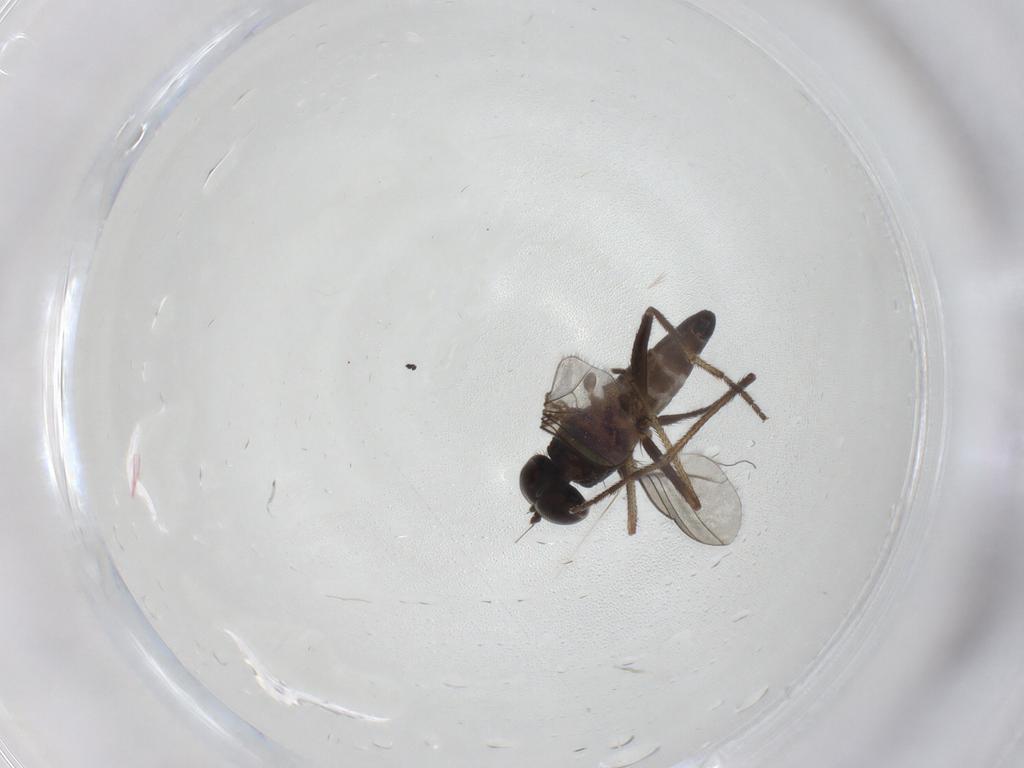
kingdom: Animalia
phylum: Arthropoda
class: Insecta
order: Diptera
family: Dolichopodidae
